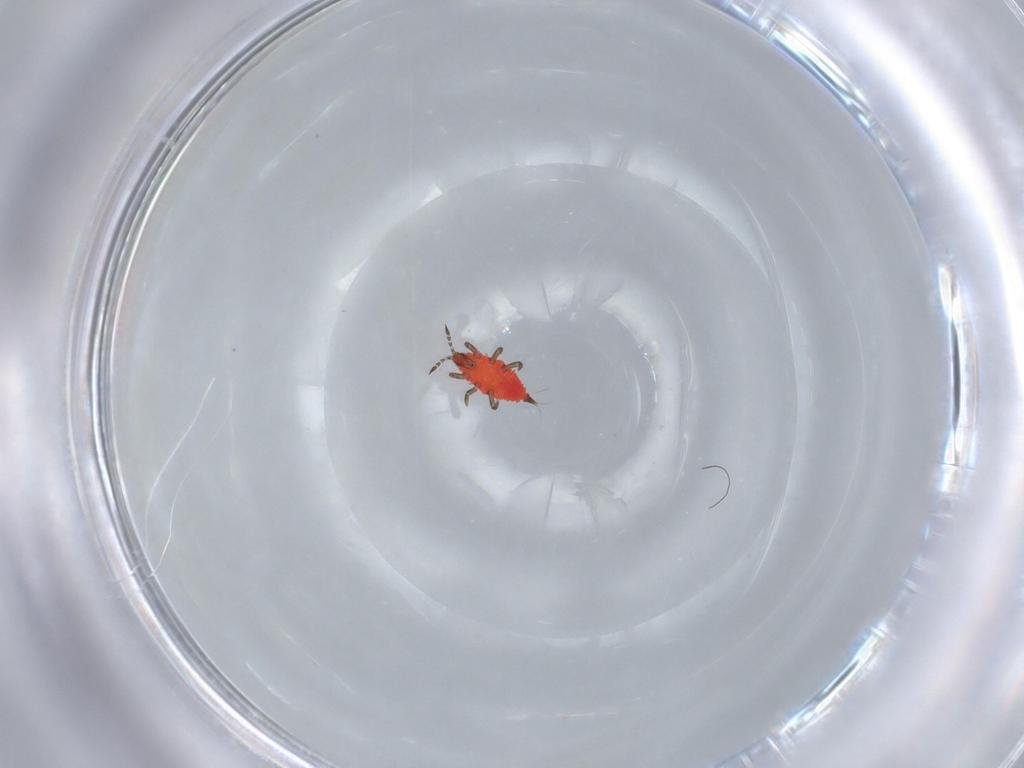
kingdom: Animalia
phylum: Arthropoda
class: Insecta
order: Thysanoptera
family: Phlaeothripidae
